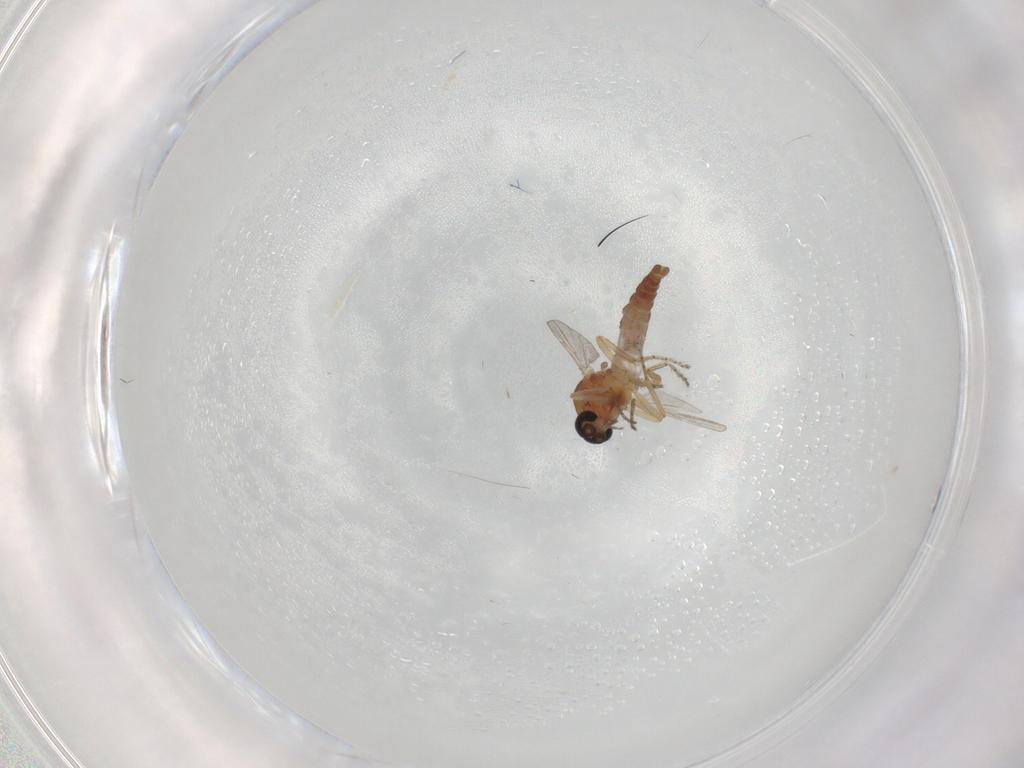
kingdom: Animalia
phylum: Arthropoda
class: Insecta
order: Diptera
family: Ceratopogonidae
